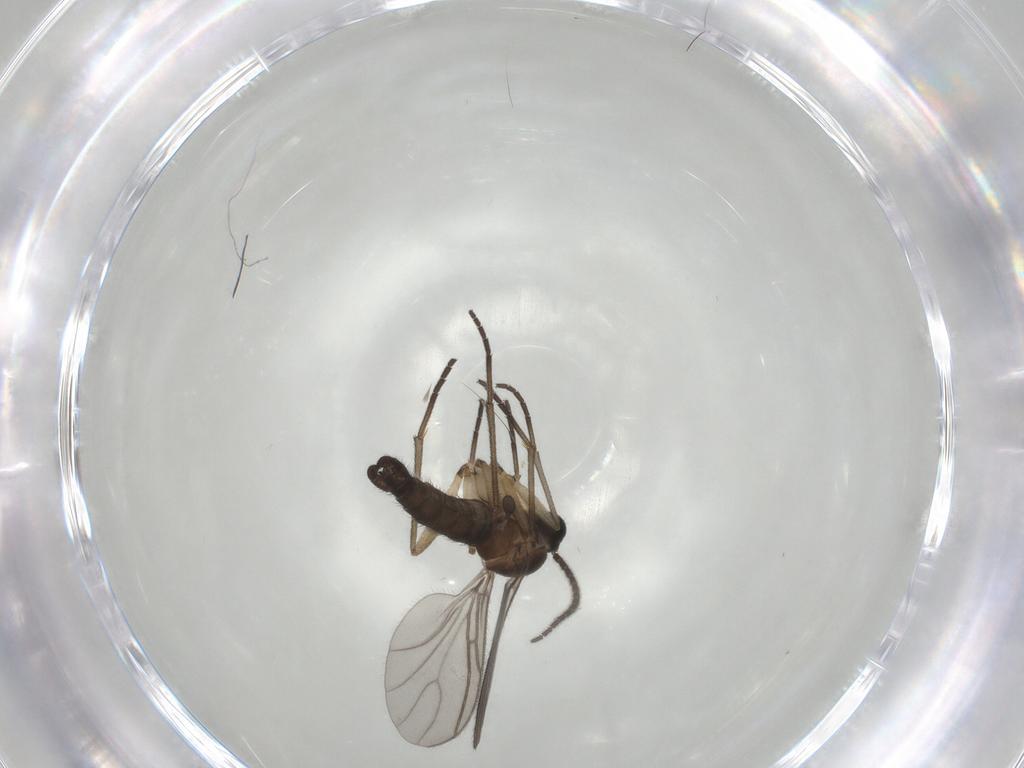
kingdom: Animalia
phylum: Arthropoda
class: Insecta
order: Diptera
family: Sciaridae
